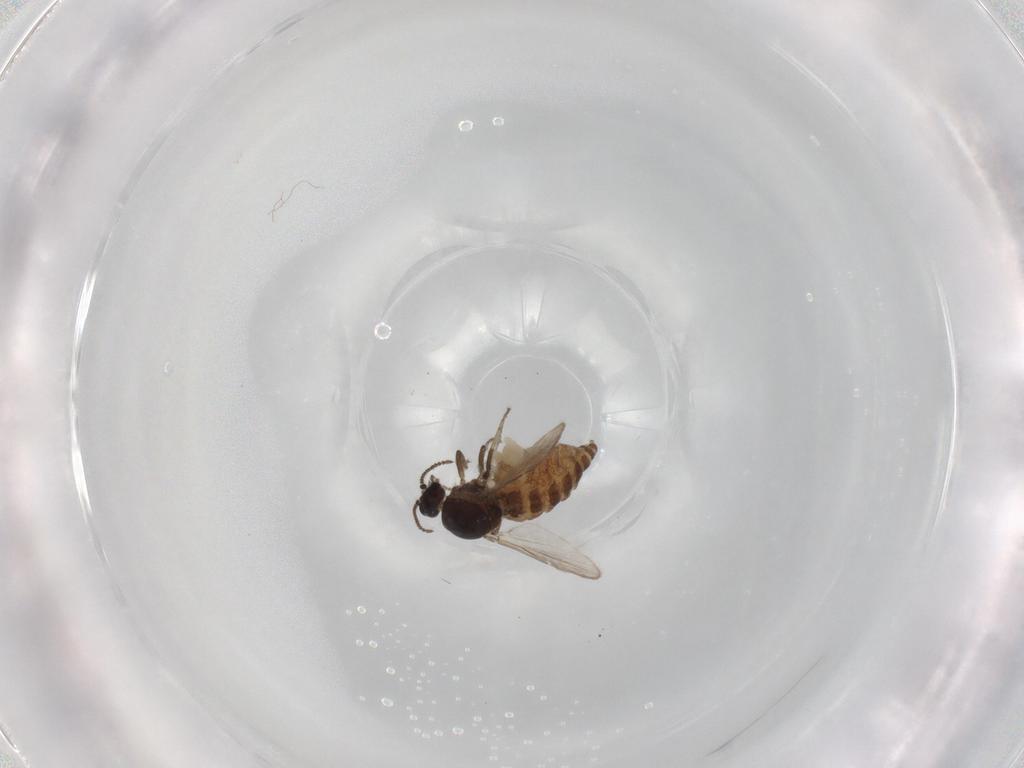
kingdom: Animalia
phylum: Arthropoda
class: Insecta
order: Diptera
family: Ceratopogonidae
